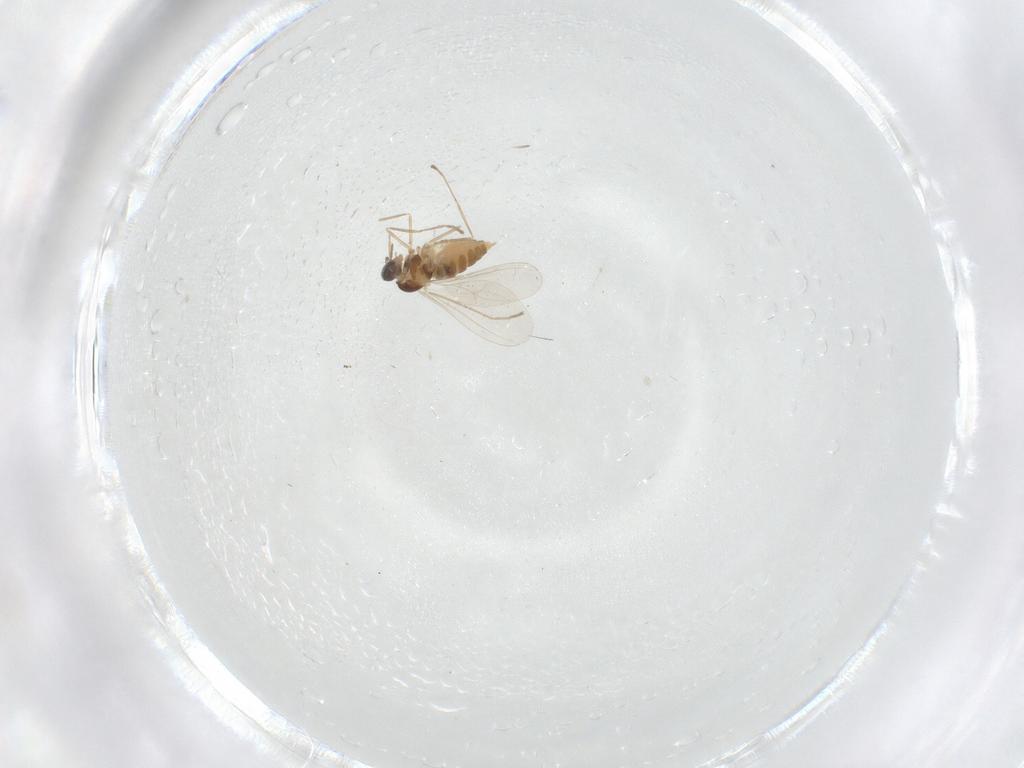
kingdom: Animalia
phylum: Arthropoda
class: Insecta
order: Diptera
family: Cecidomyiidae
